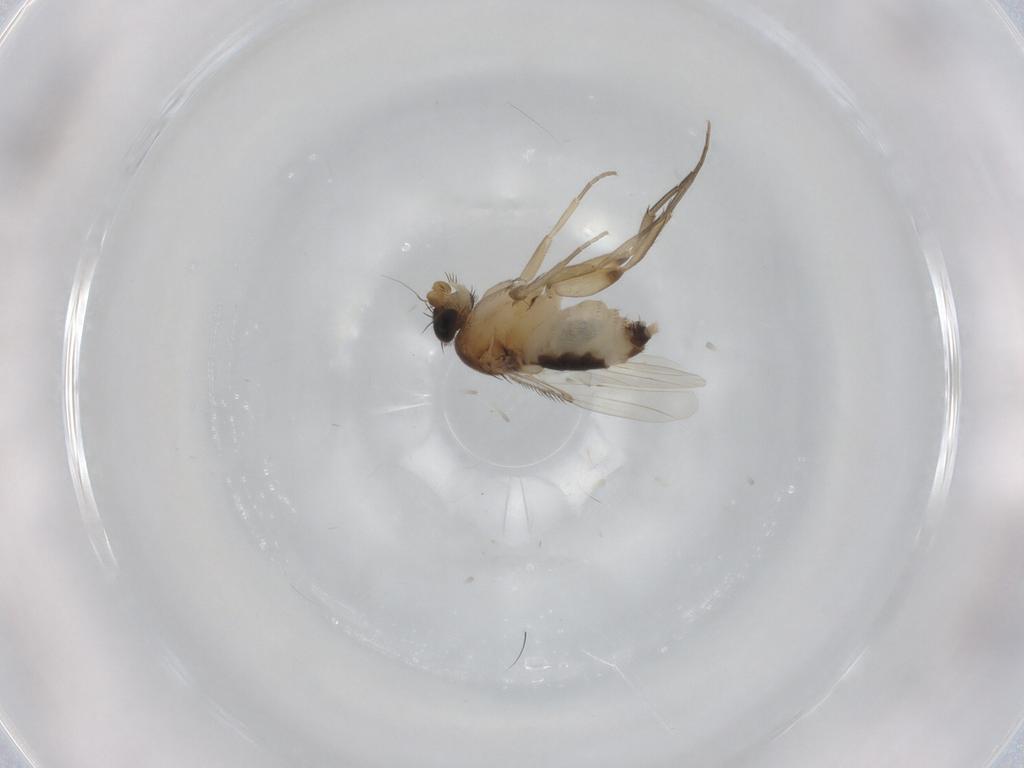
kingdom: Animalia
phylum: Arthropoda
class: Insecta
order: Diptera
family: Phoridae
